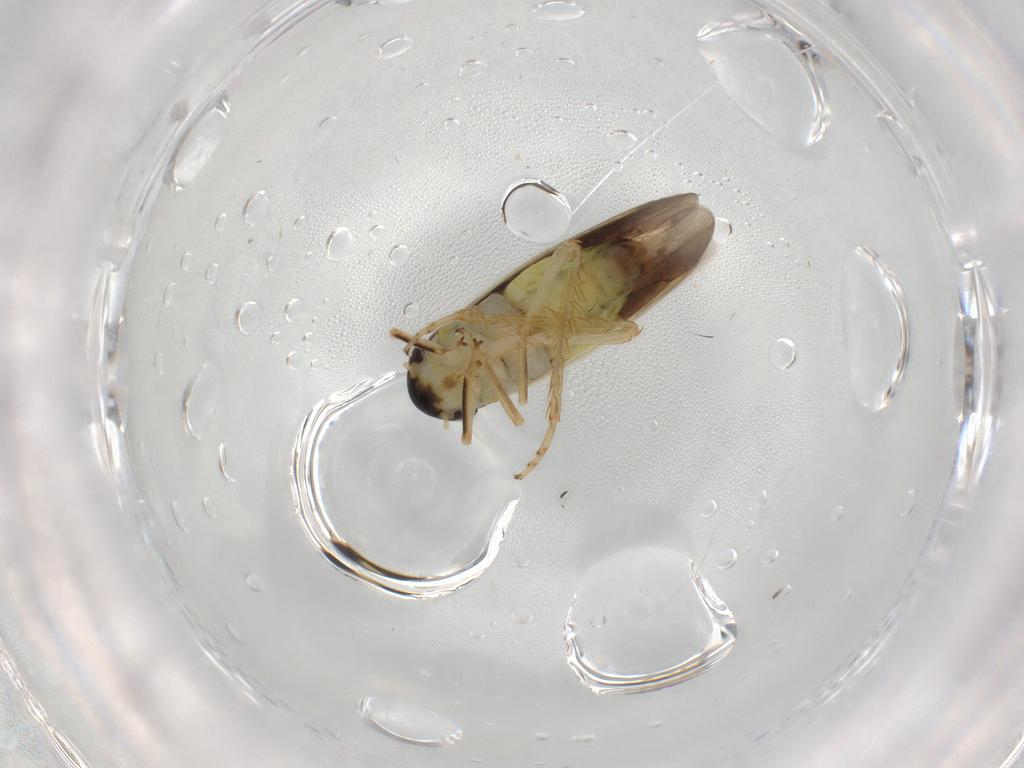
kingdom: Animalia
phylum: Arthropoda
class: Insecta
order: Hemiptera
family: Cicadellidae
